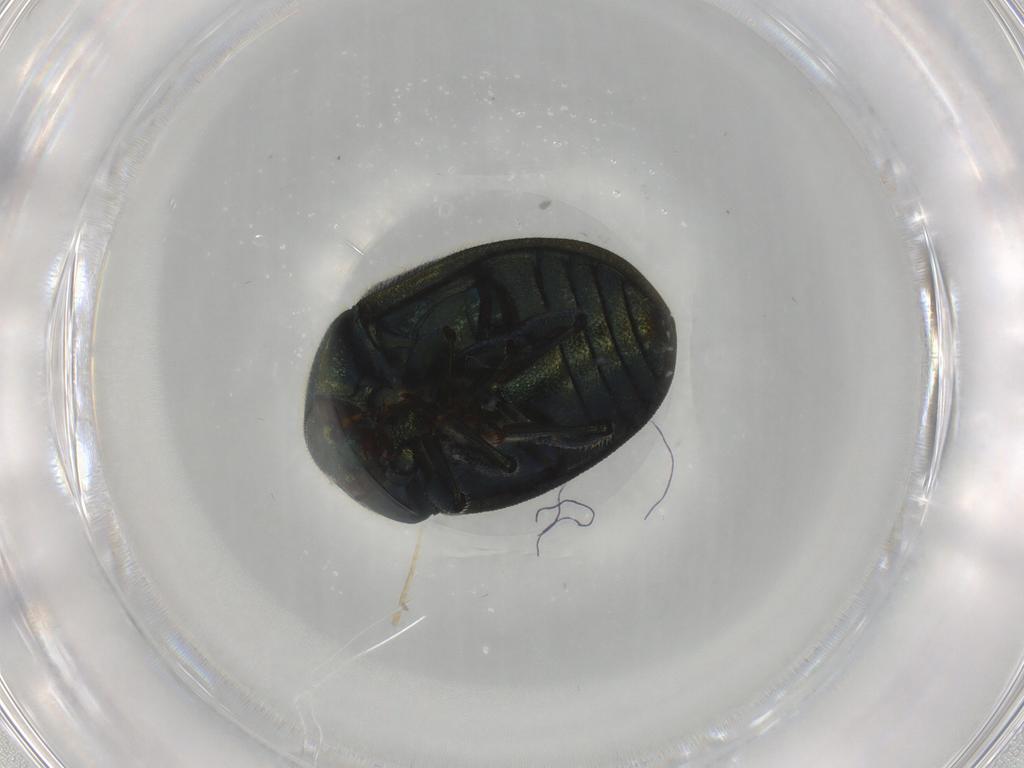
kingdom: Animalia
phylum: Arthropoda
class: Insecta
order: Coleoptera
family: Chrysomelidae
